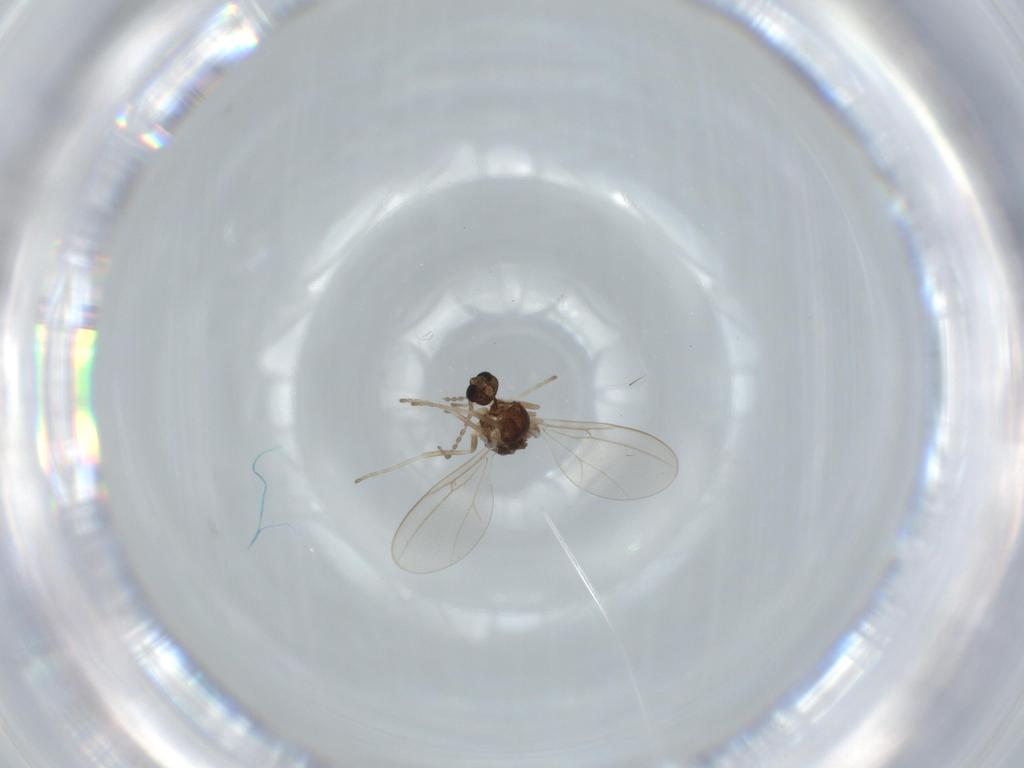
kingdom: Animalia
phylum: Arthropoda
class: Insecta
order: Diptera
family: Cecidomyiidae
